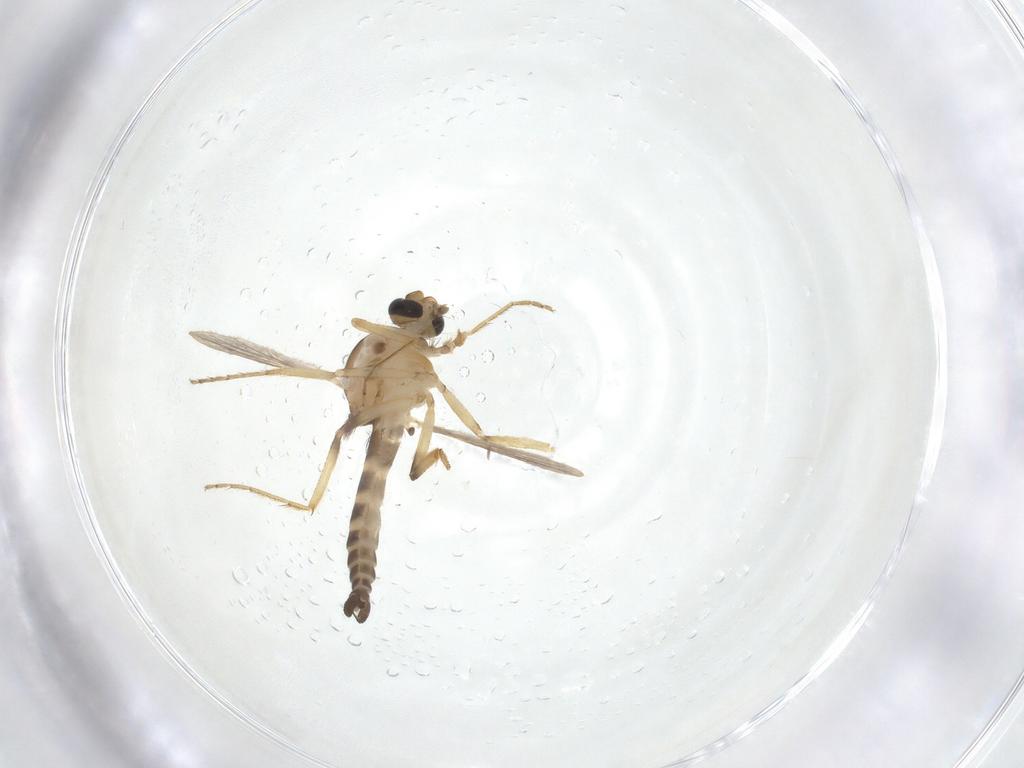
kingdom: Animalia
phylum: Arthropoda
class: Insecta
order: Diptera
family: Ceratopogonidae
